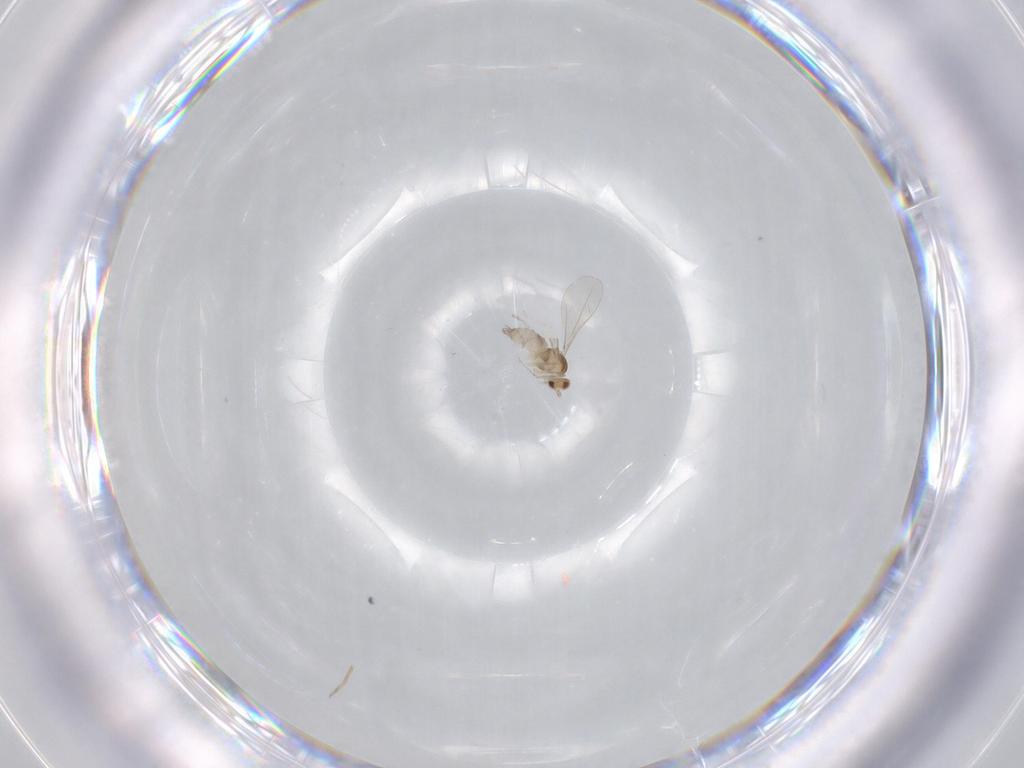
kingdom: Animalia
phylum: Arthropoda
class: Insecta
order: Diptera
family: Cecidomyiidae
